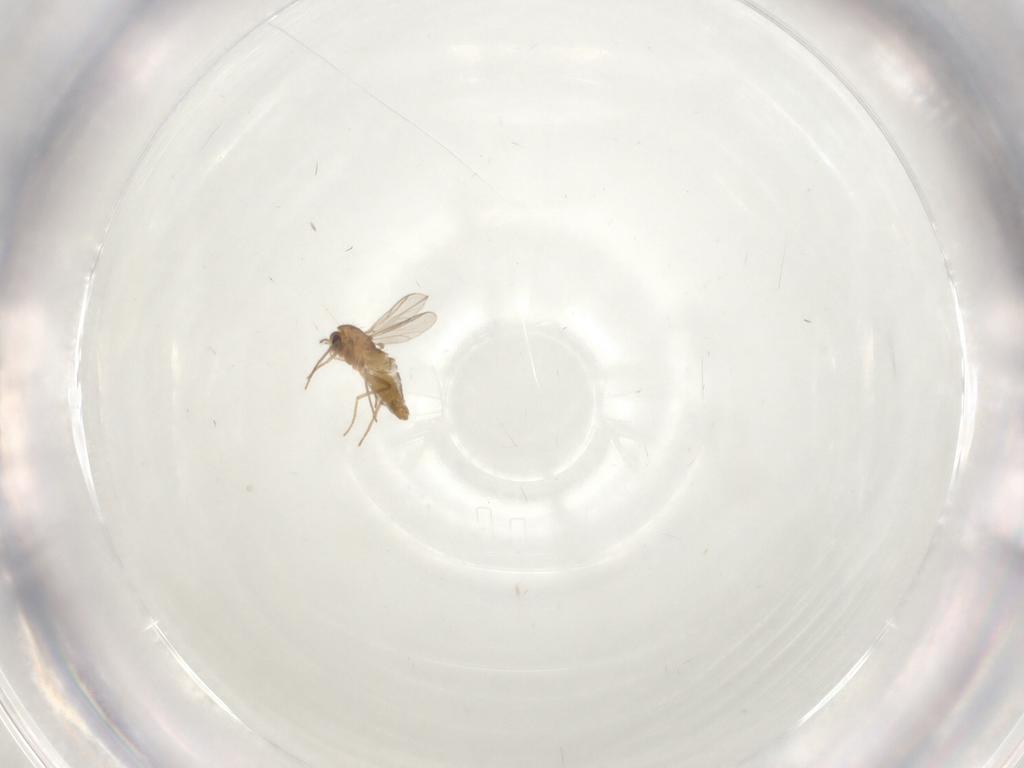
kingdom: Animalia
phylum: Arthropoda
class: Insecta
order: Diptera
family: Chironomidae
